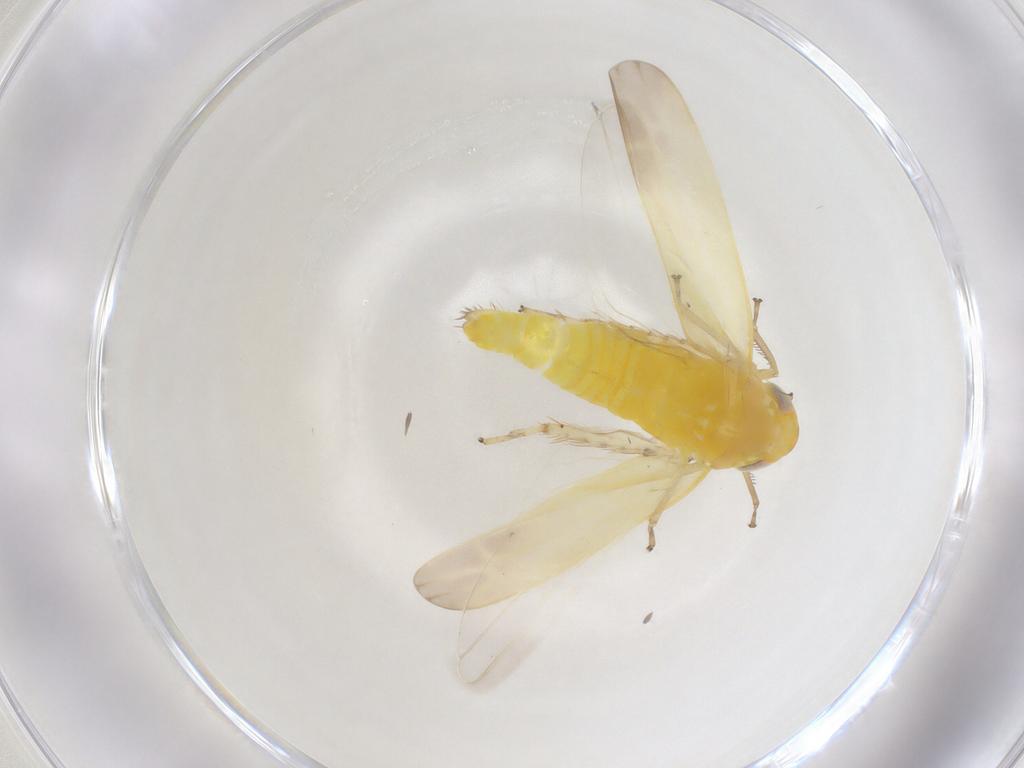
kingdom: Animalia
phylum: Arthropoda
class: Insecta
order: Hemiptera
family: Cicadellidae
